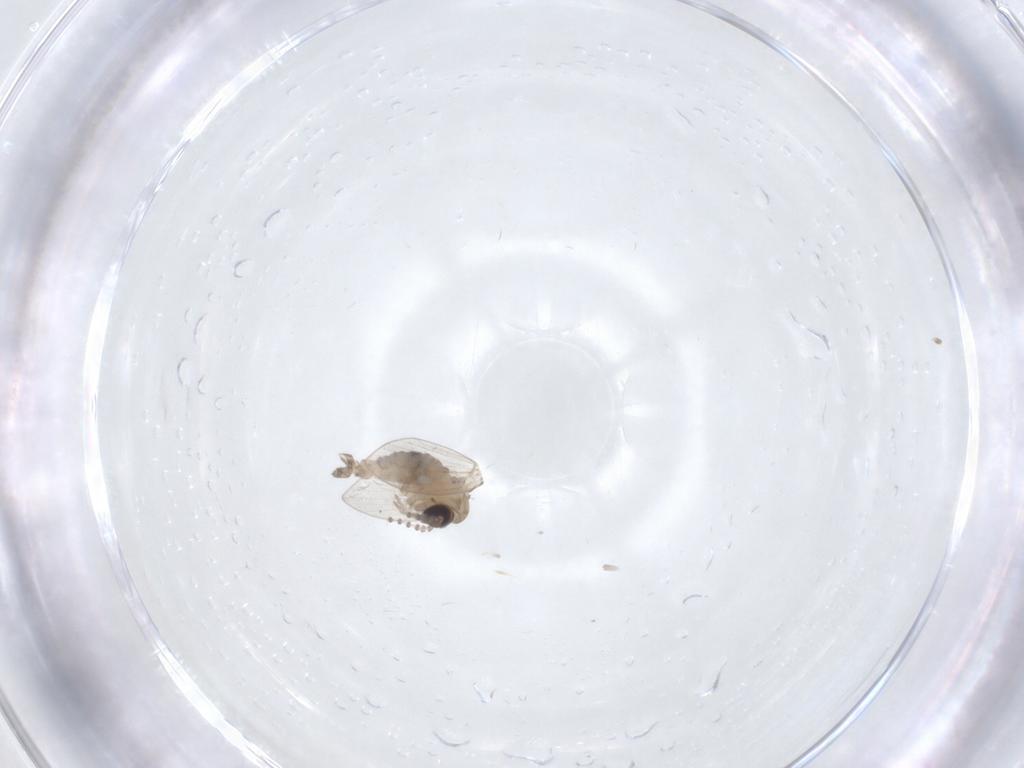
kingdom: Animalia
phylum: Arthropoda
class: Insecta
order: Diptera
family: Psychodidae
